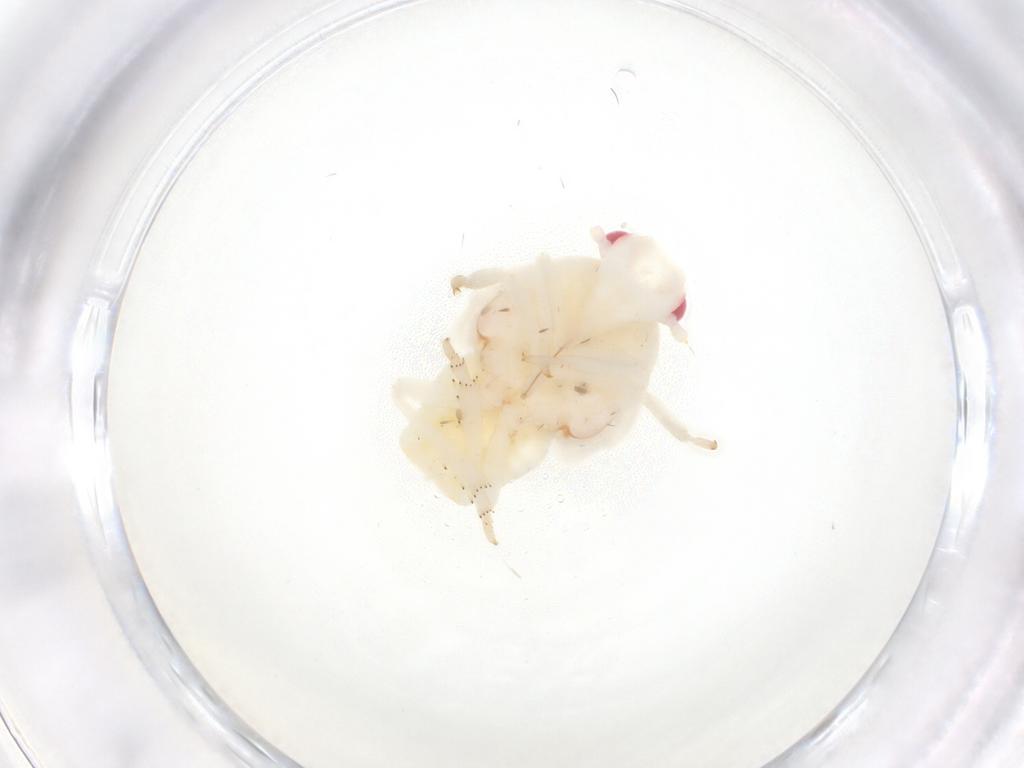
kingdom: Animalia
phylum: Arthropoda
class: Insecta
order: Hemiptera
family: Flatidae
